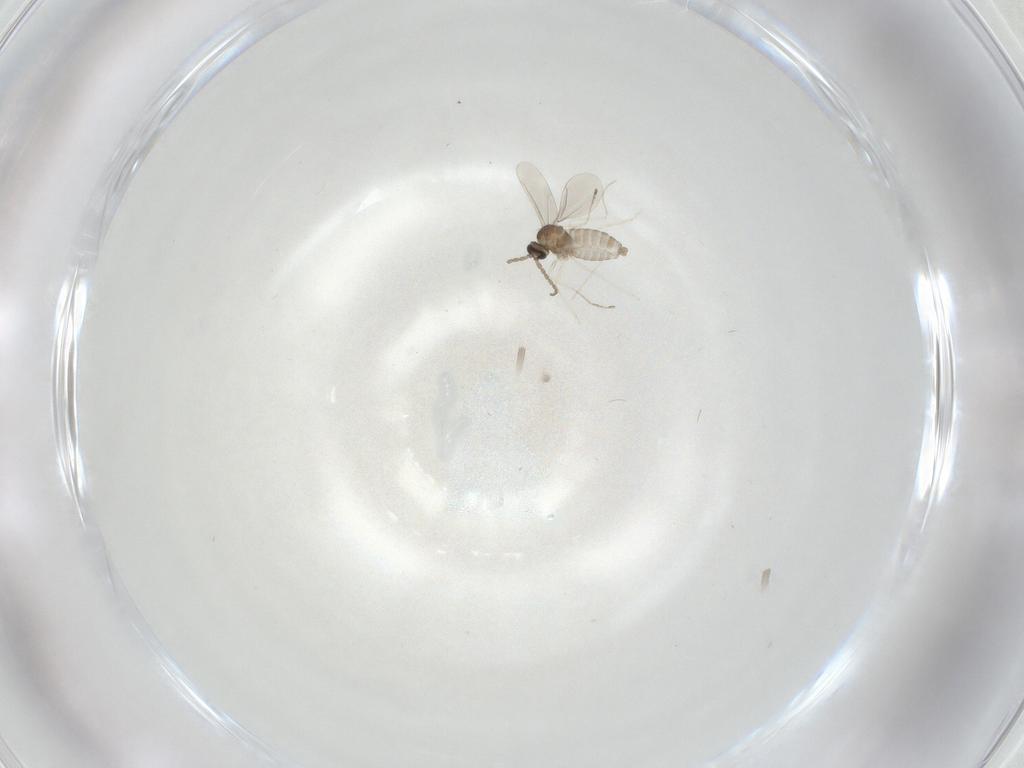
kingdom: Animalia
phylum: Arthropoda
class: Insecta
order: Diptera
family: Cecidomyiidae
